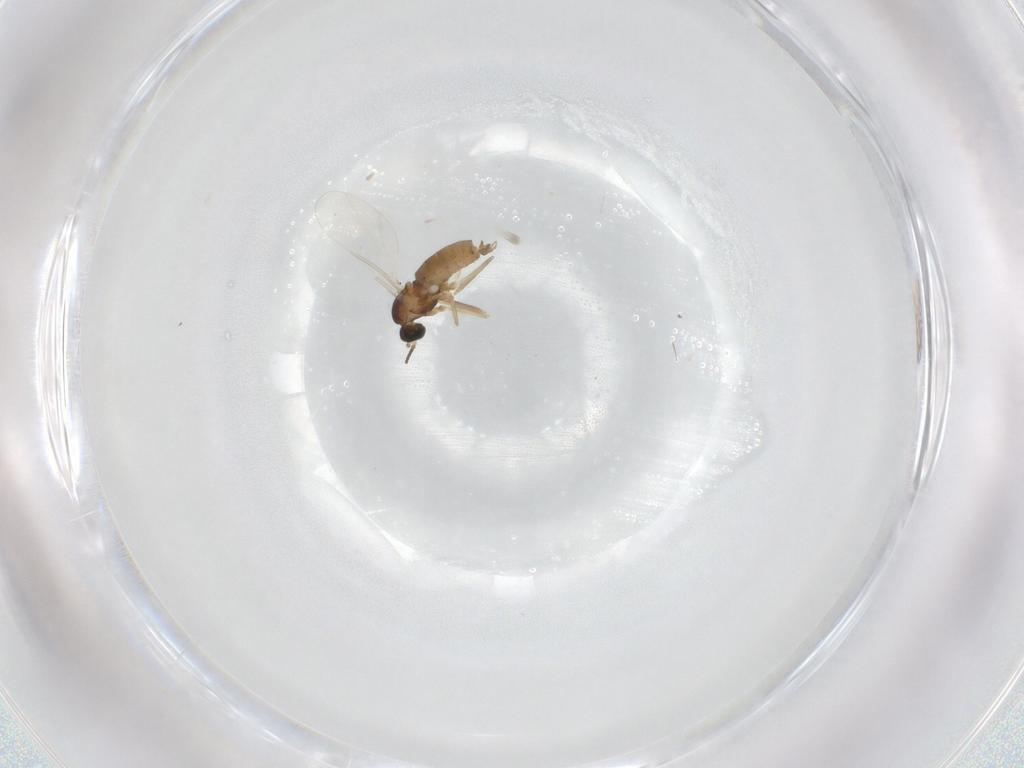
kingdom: Animalia
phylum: Arthropoda
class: Insecta
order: Diptera
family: Cecidomyiidae
